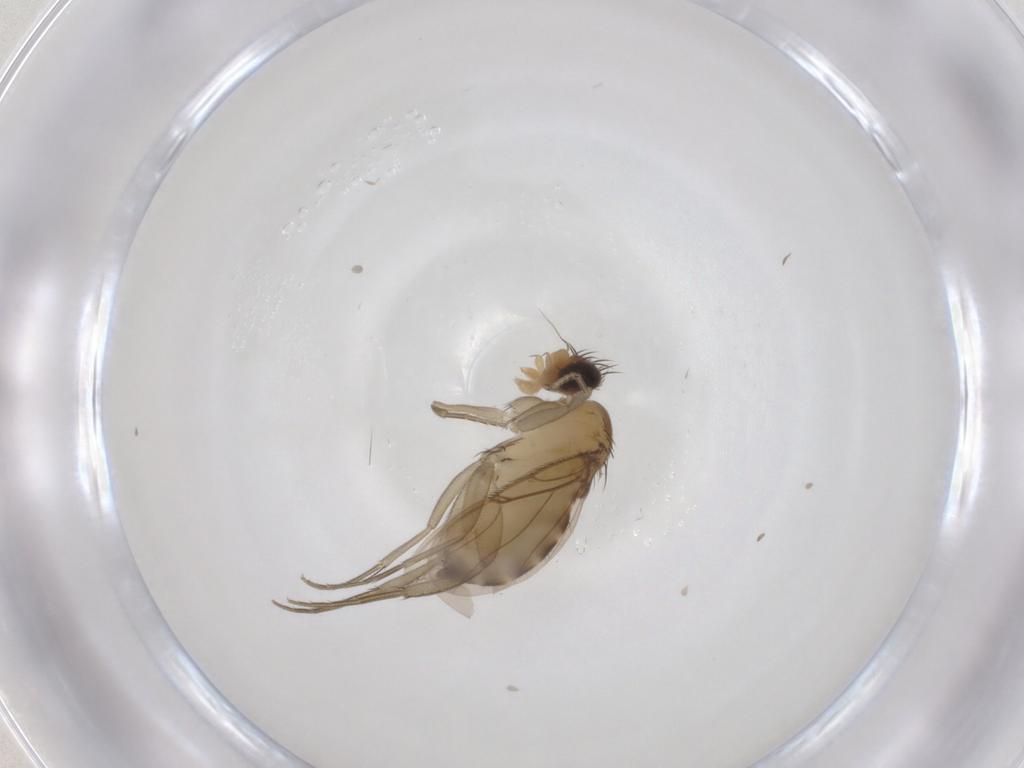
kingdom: Animalia
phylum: Arthropoda
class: Insecta
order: Diptera
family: Phoridae
